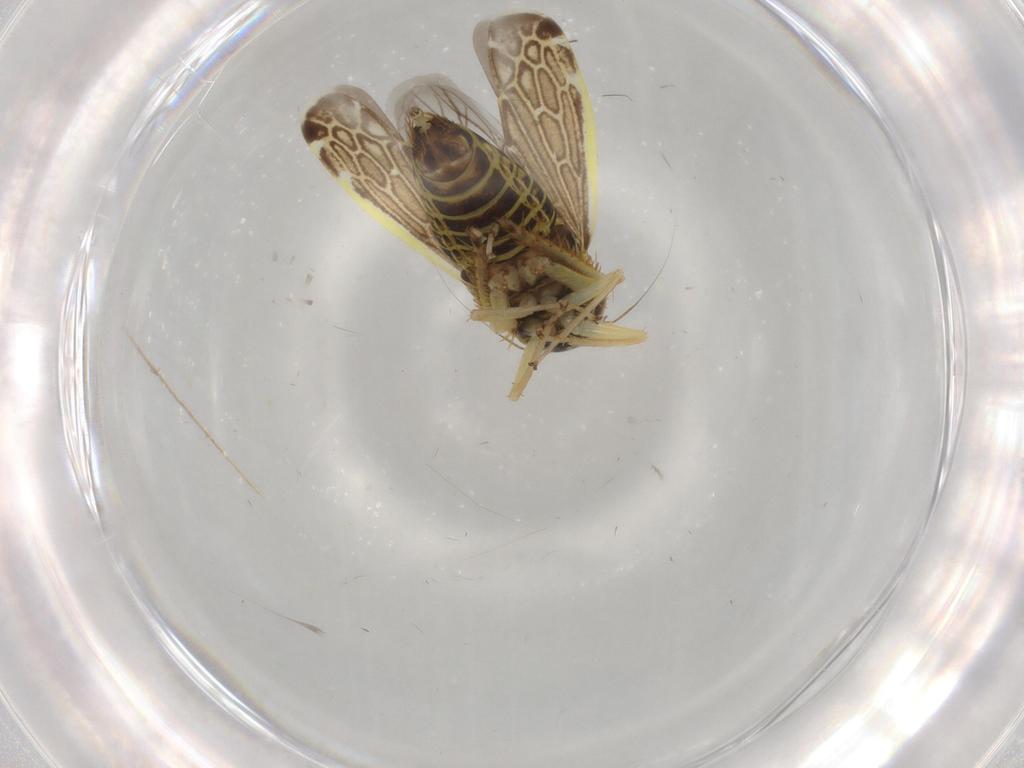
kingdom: Animalia
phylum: Arthropoda
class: Insecta
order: Hemiptera
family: Cicadellidae
